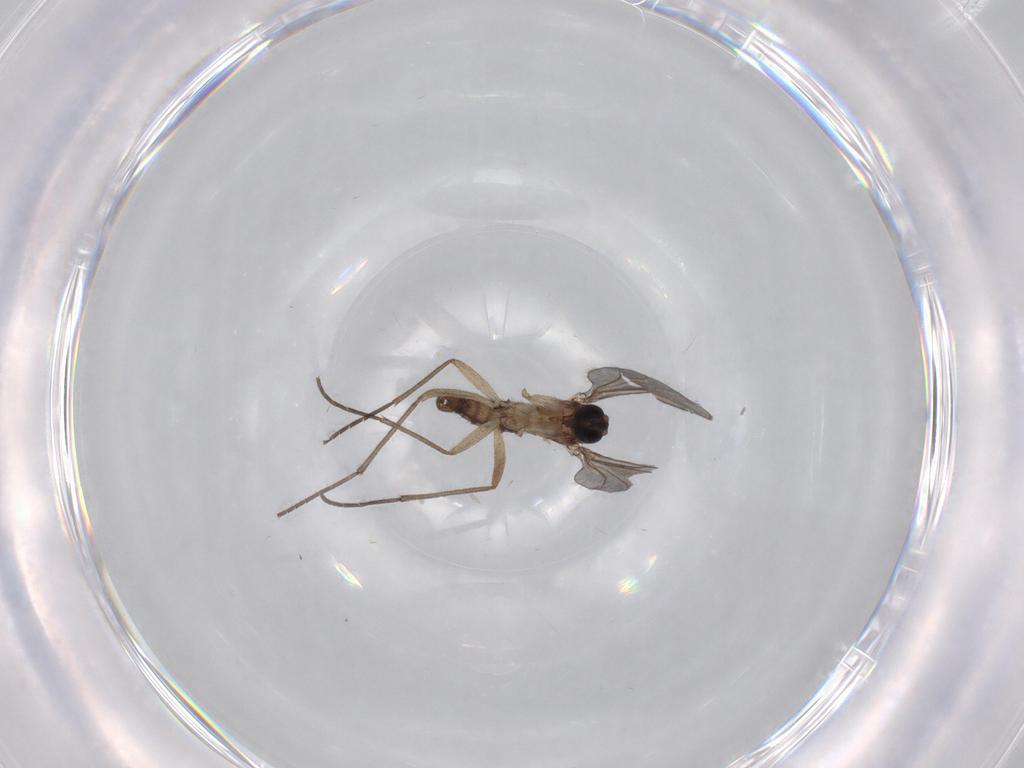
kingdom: Animalia
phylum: Arthropoda
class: Insecta
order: Diptera
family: Sciaridae
